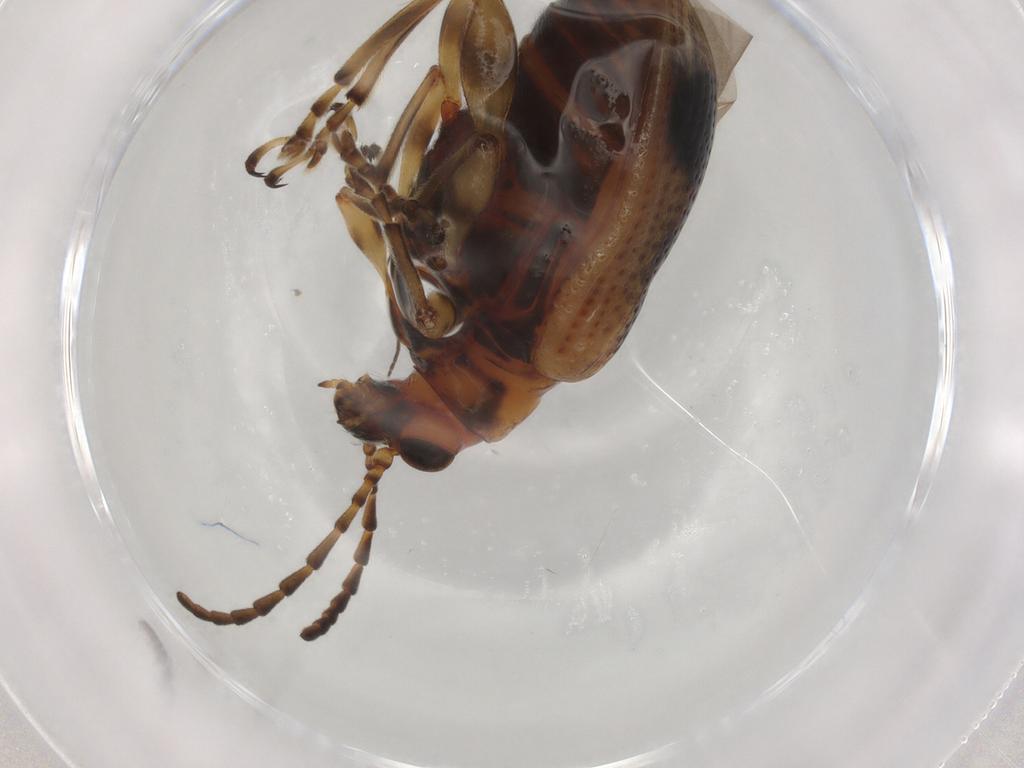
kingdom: Animalia
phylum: Arthropoda
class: Insecta
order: Coleoptera
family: Chrysomelidae
